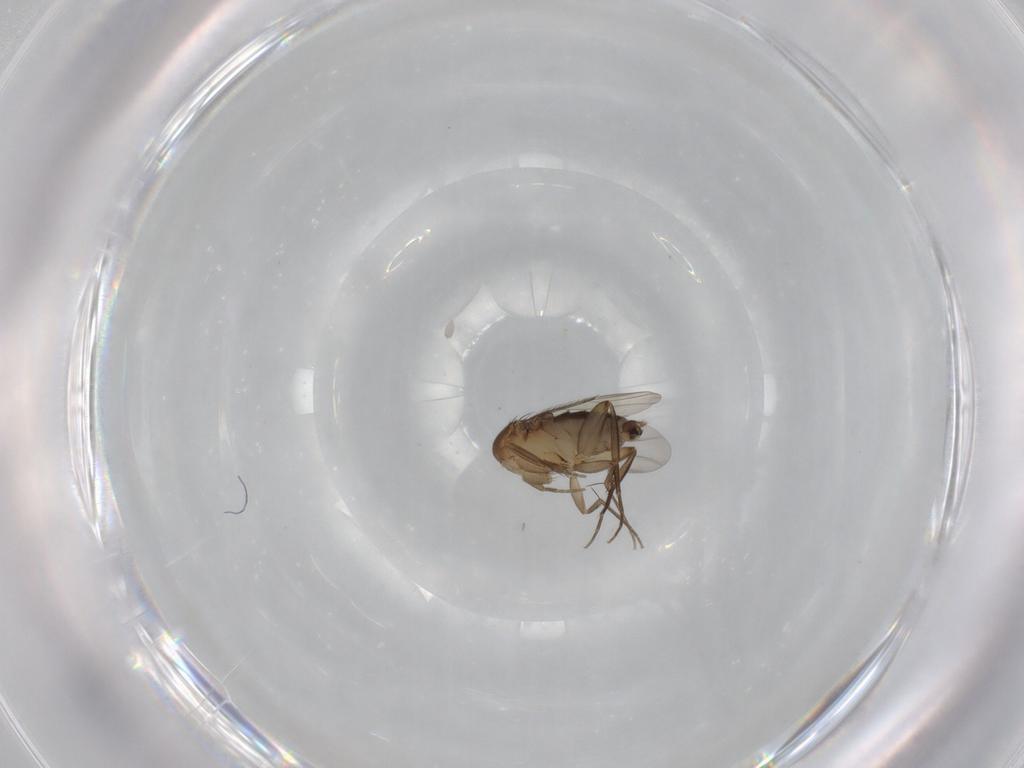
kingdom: Animalia
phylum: Arthropoda
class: Insecta
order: Diptera
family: Phoridae
